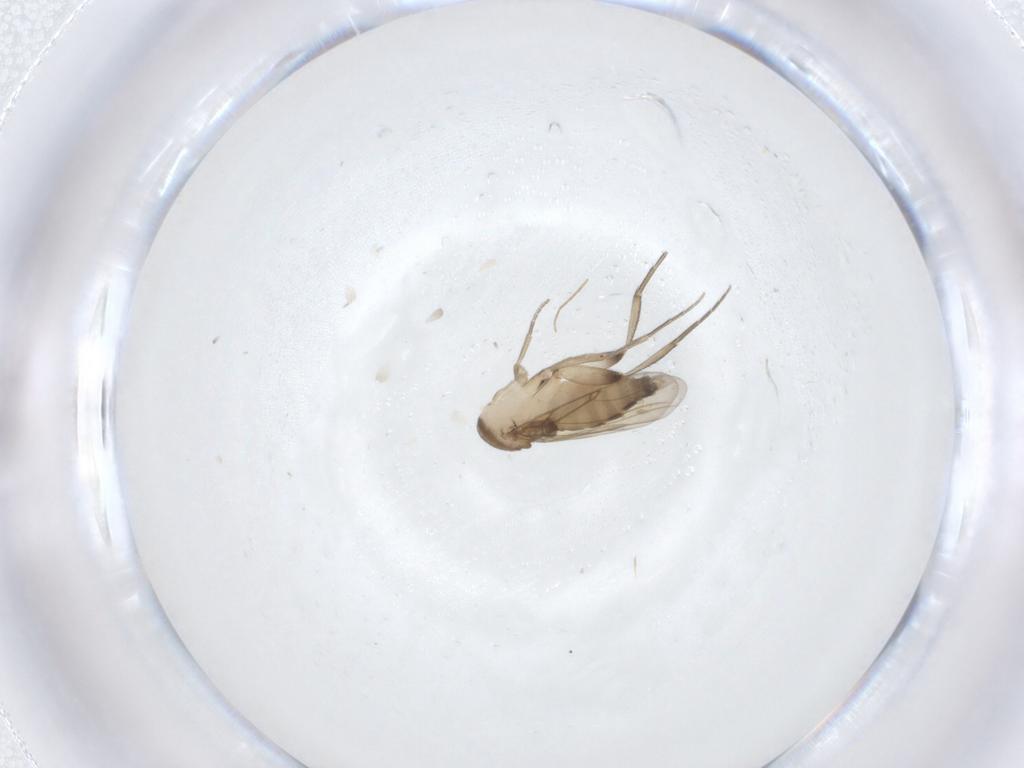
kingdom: Animalia
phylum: Arthropoda
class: Insecta
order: Diptera
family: Phoridae
